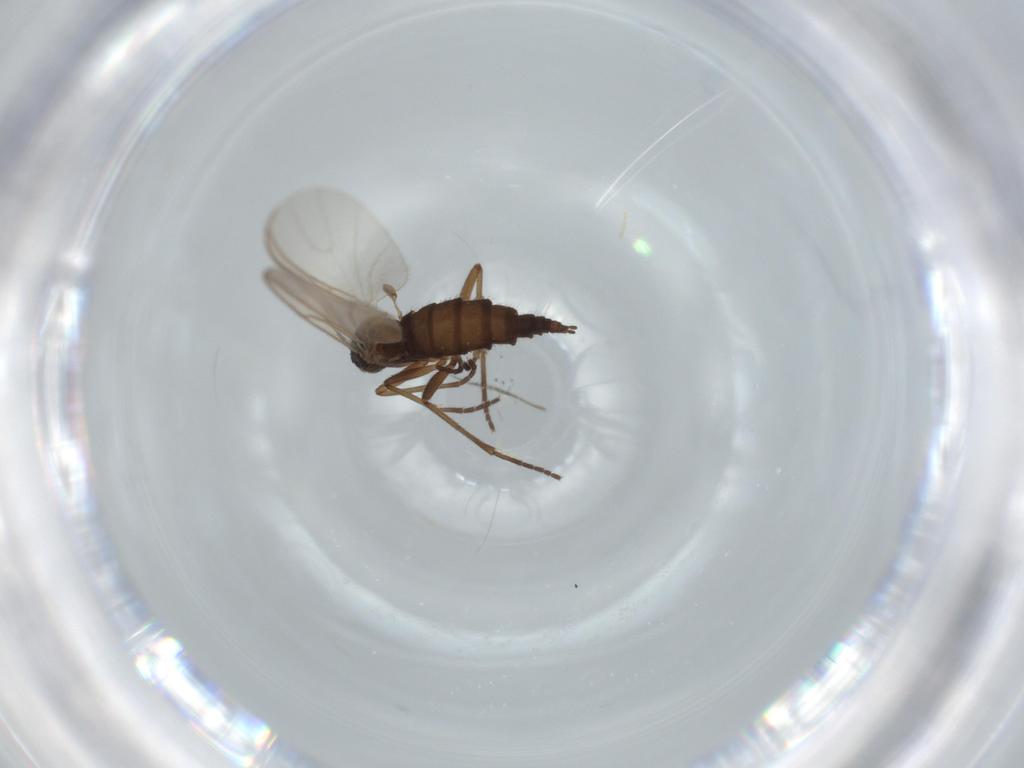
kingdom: Animalia
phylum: Arthropoda
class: Insecta
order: Diptera
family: Sciaridae
